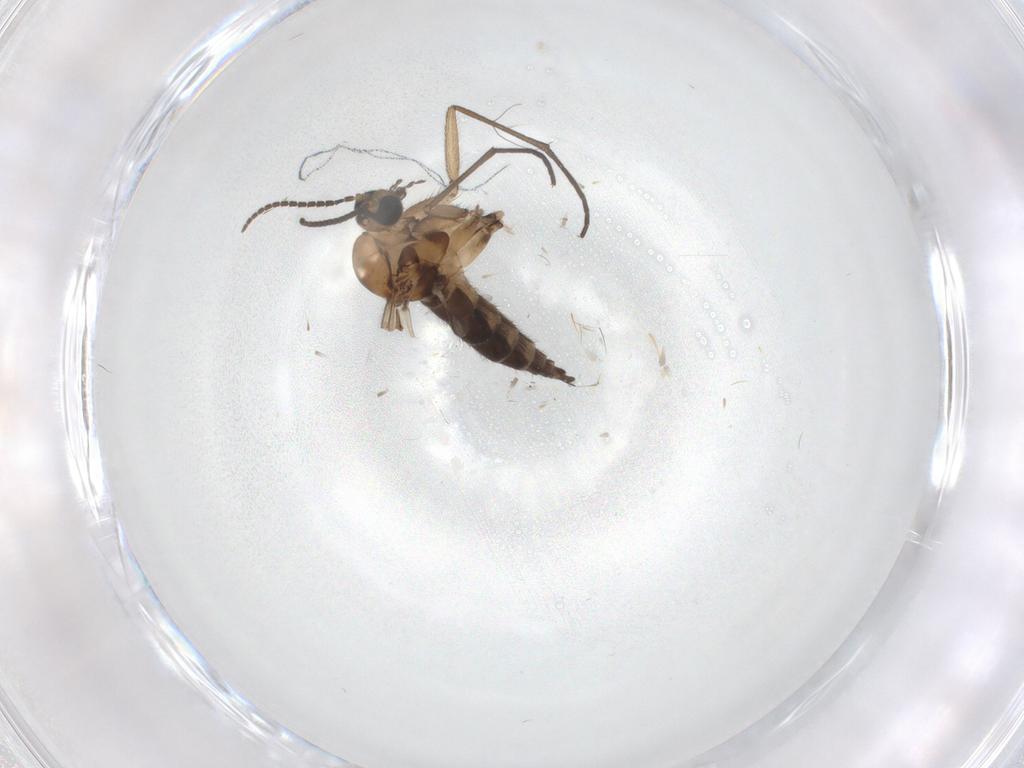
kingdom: Animalia
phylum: Arthropoda
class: Insecta
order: Diptera
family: Sciaridae
